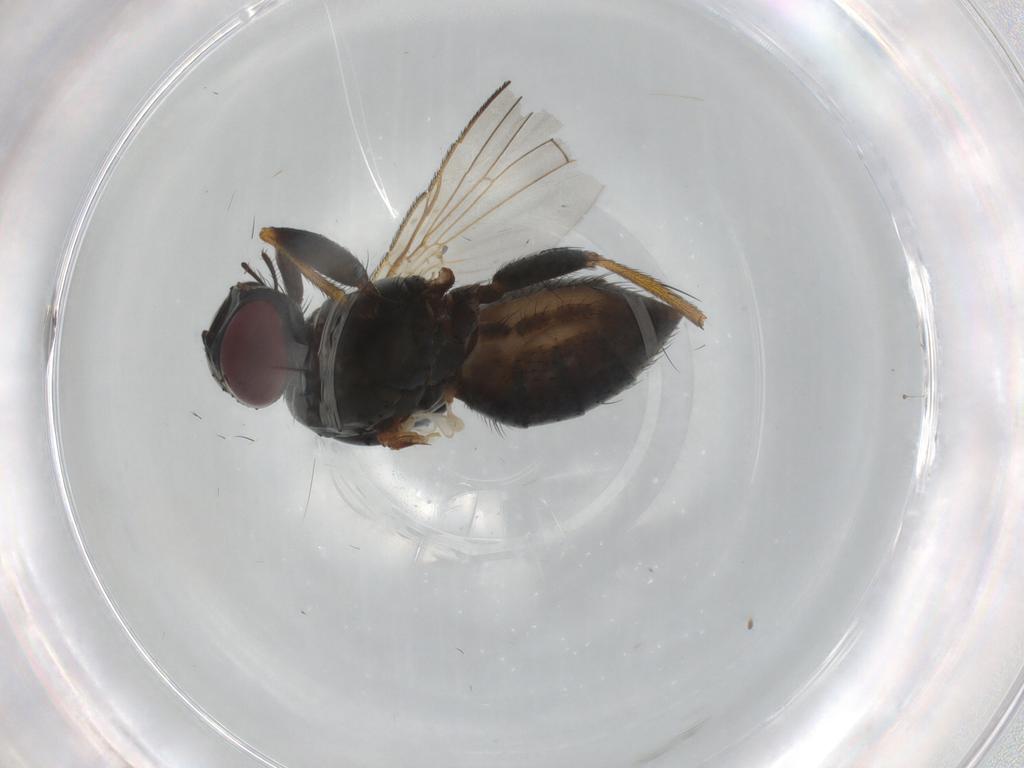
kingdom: Animalia
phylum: Arthropoda
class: Insecta
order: Diptera
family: Muscidae
